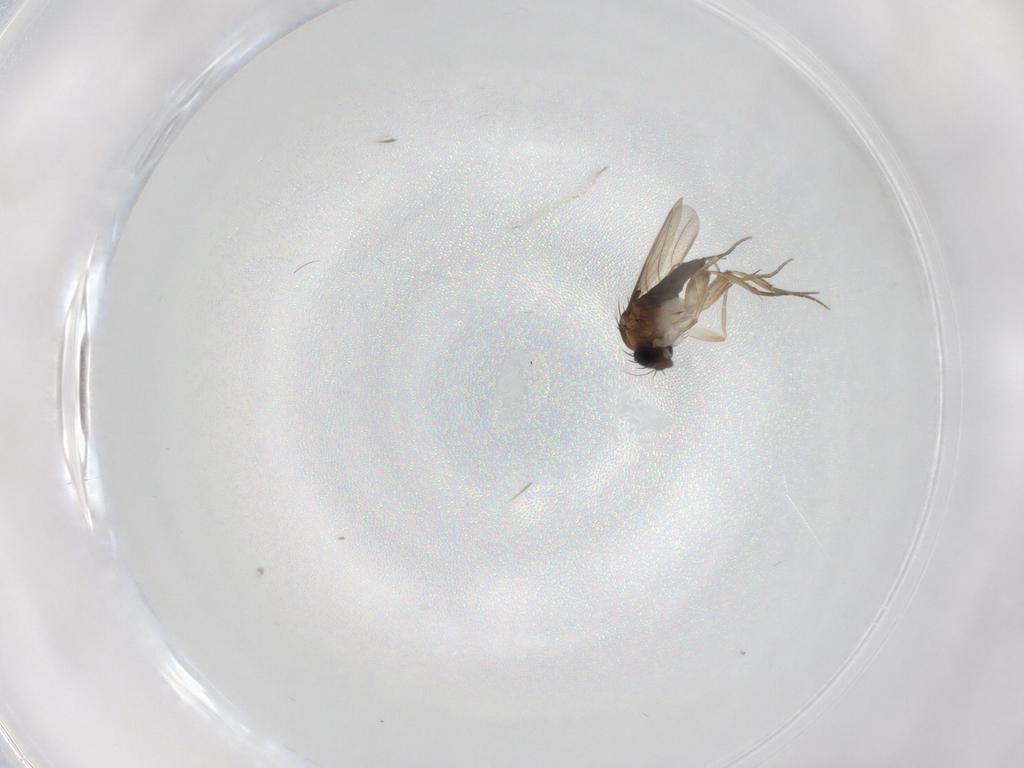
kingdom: Animalia
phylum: Arthropoda
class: Insecta
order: Diptera
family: Phoridae
